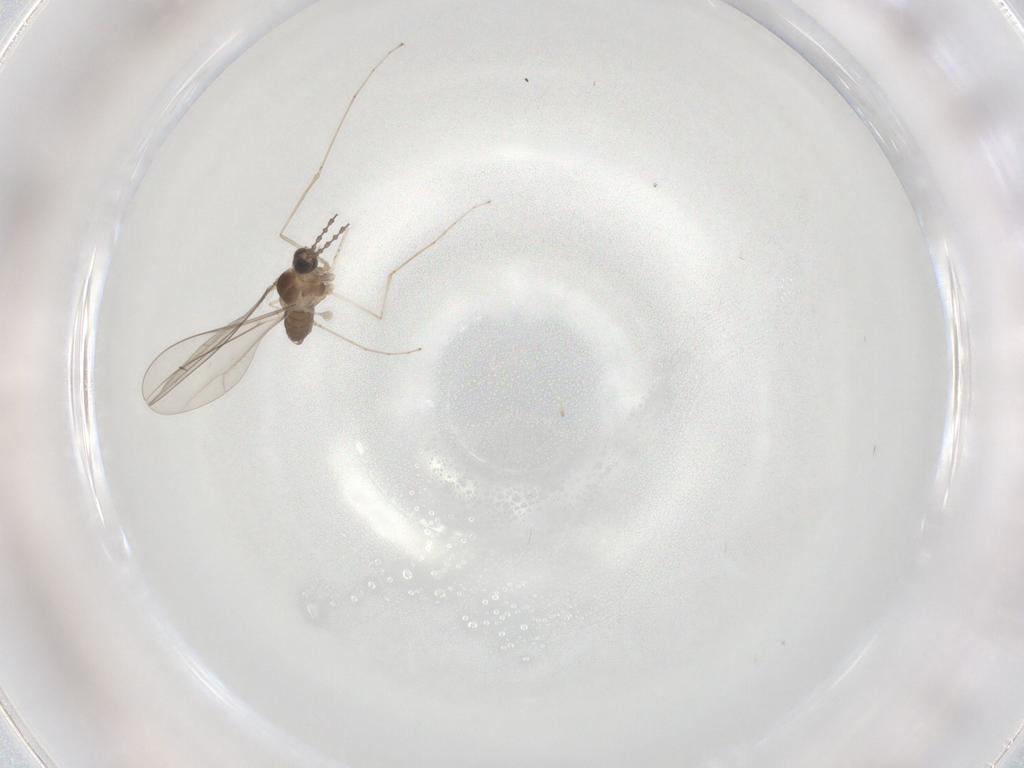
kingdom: Animalia
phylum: Arthropoda
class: Insecta
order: Diptera
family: Cecidomyiidae
